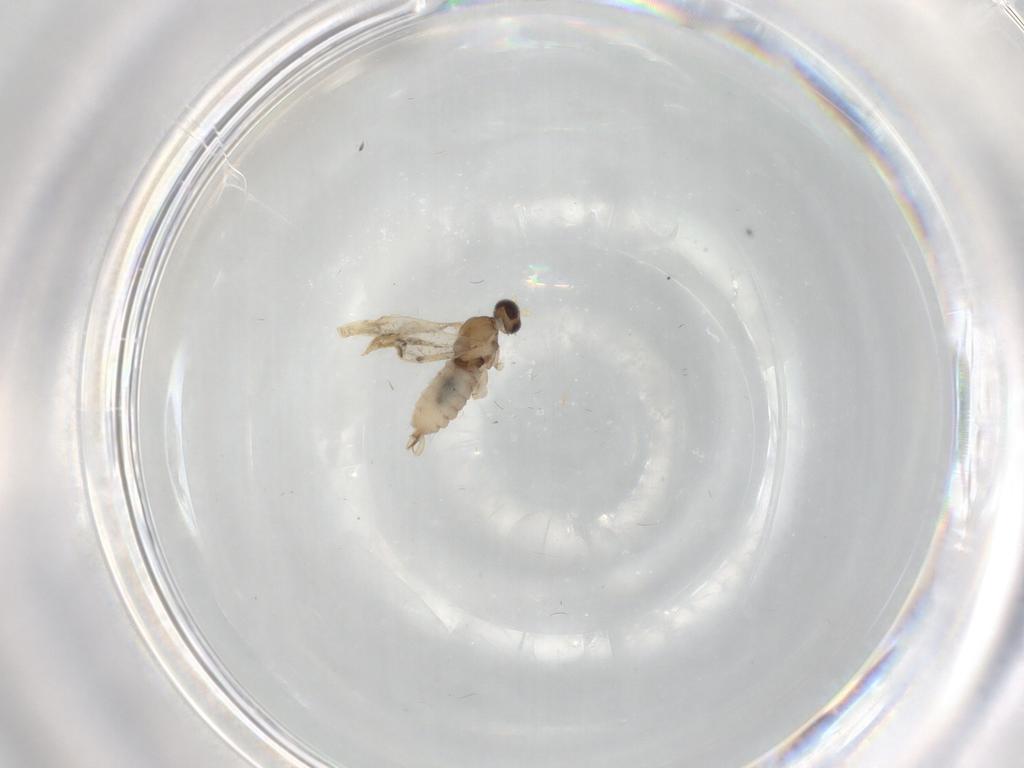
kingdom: Animalia
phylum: Arthropoda
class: Insecta
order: Diptera
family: Cecidomyiidae
